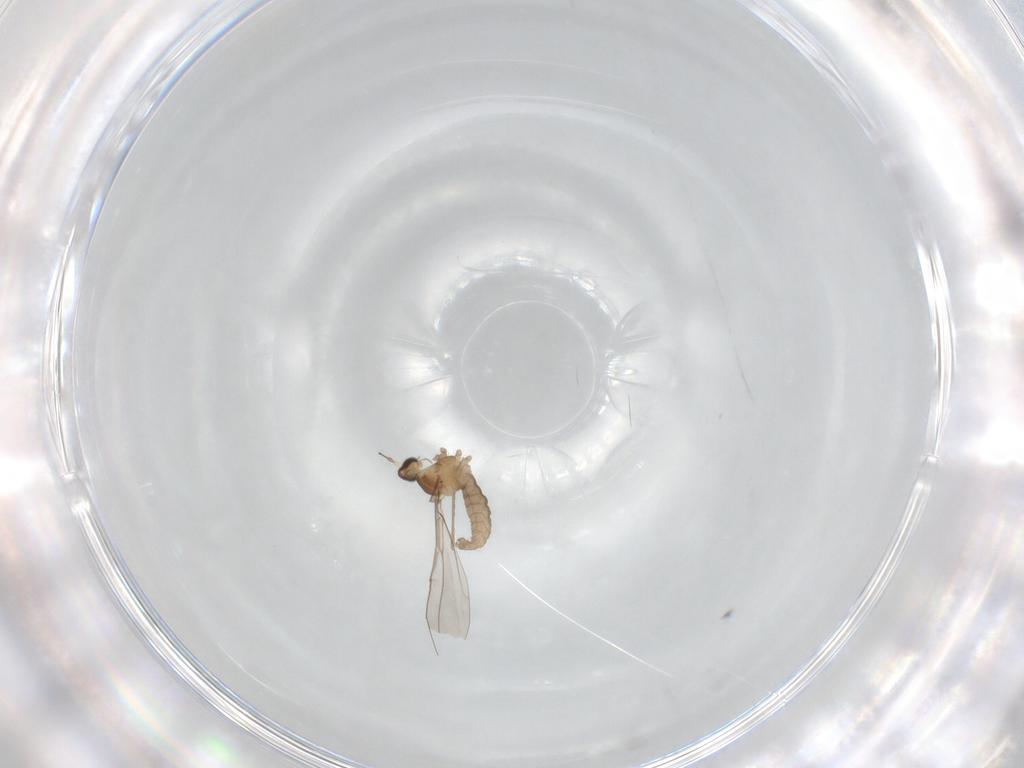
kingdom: Animalia
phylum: Arthropoda
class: Insecta
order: Diptera
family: Cecidomyiidae
